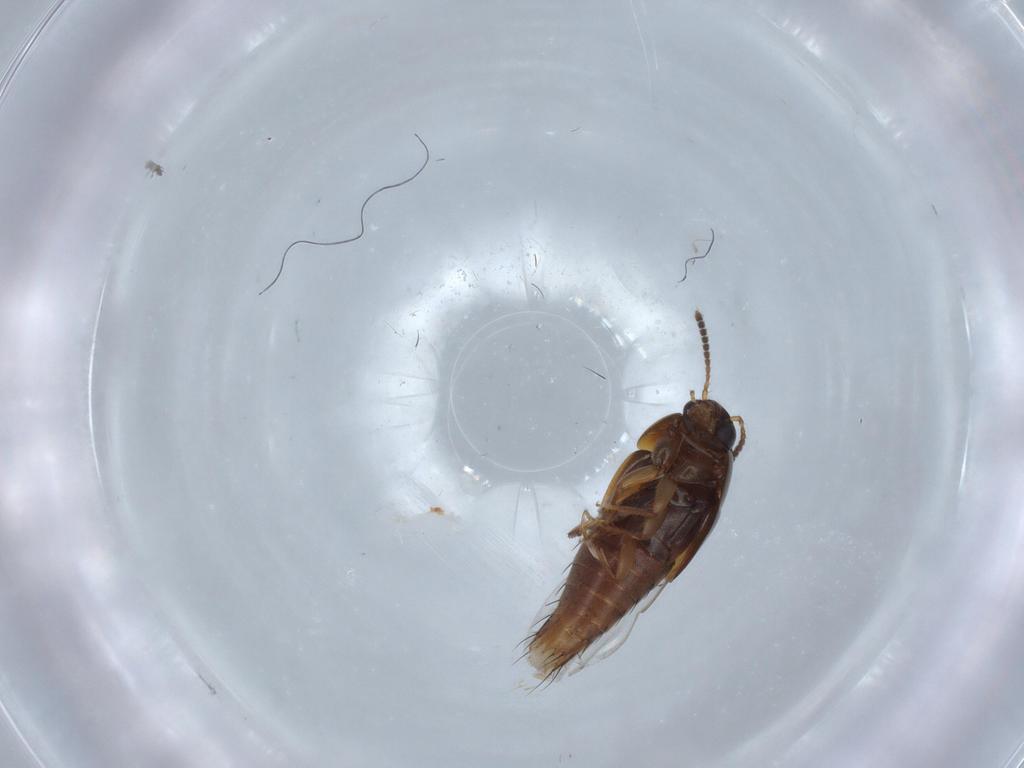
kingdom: Animalia
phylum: Arthropoda
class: Insecta
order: Coleoptera
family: Staphylinidae
